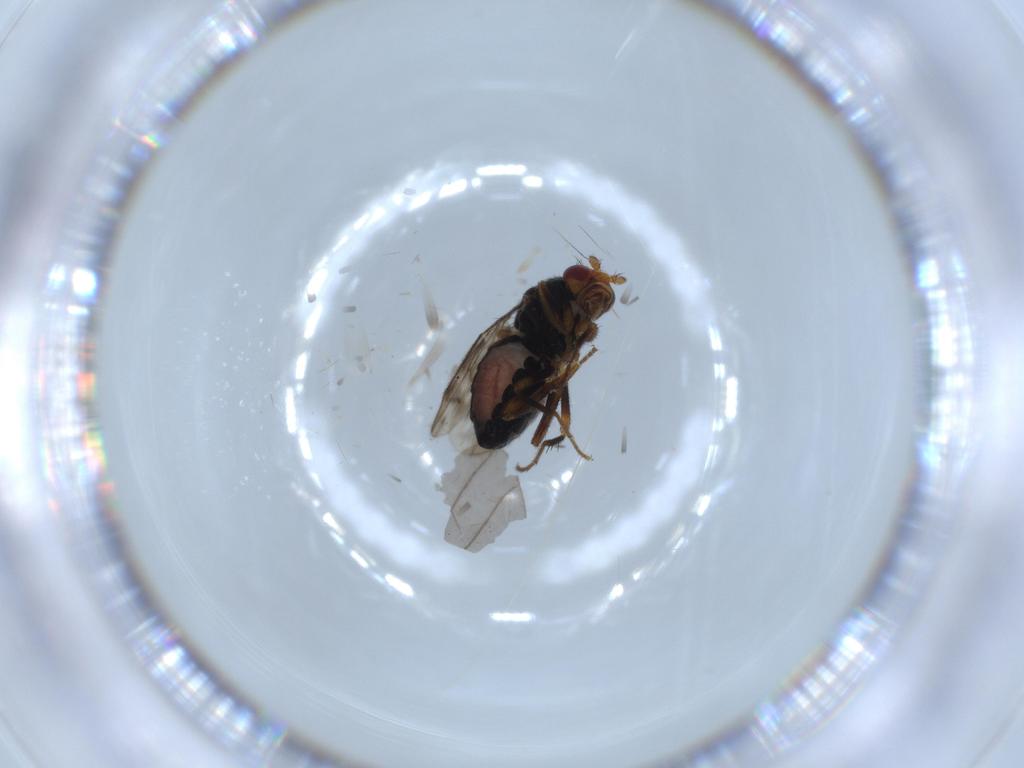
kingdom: Animalia
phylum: Arthropoda
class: Insecta
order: Diptera
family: Sphaeroceridae
